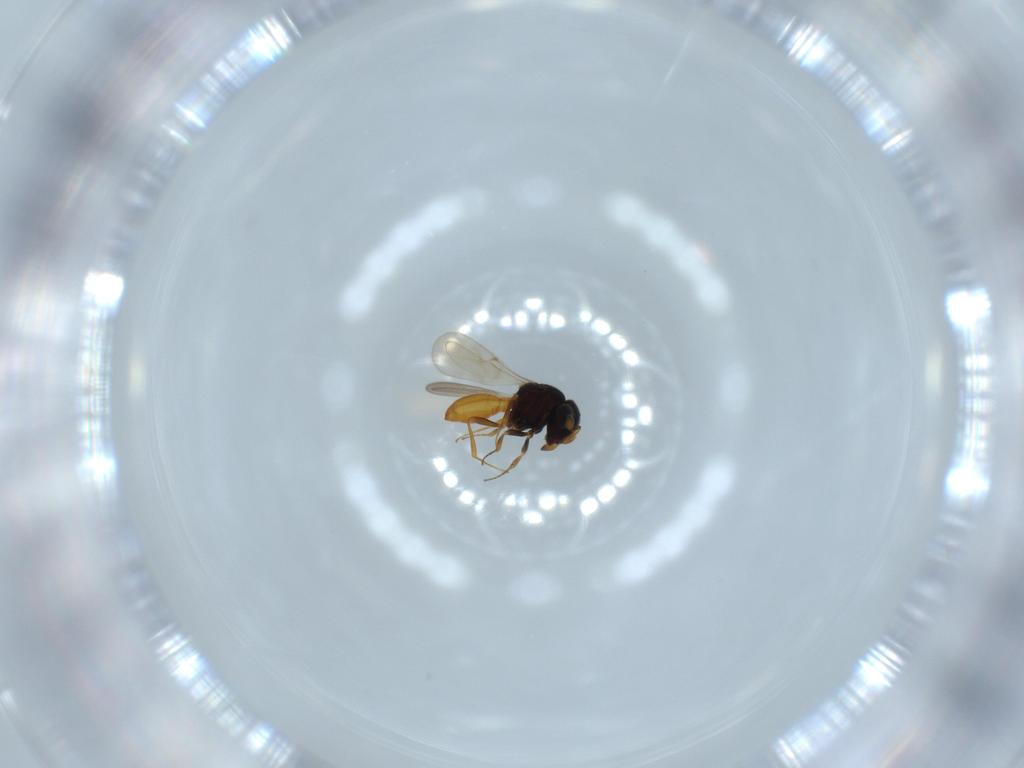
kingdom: Animalia
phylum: Arthropoda
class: Insecta
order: Hymenoptera
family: Scelionidae
